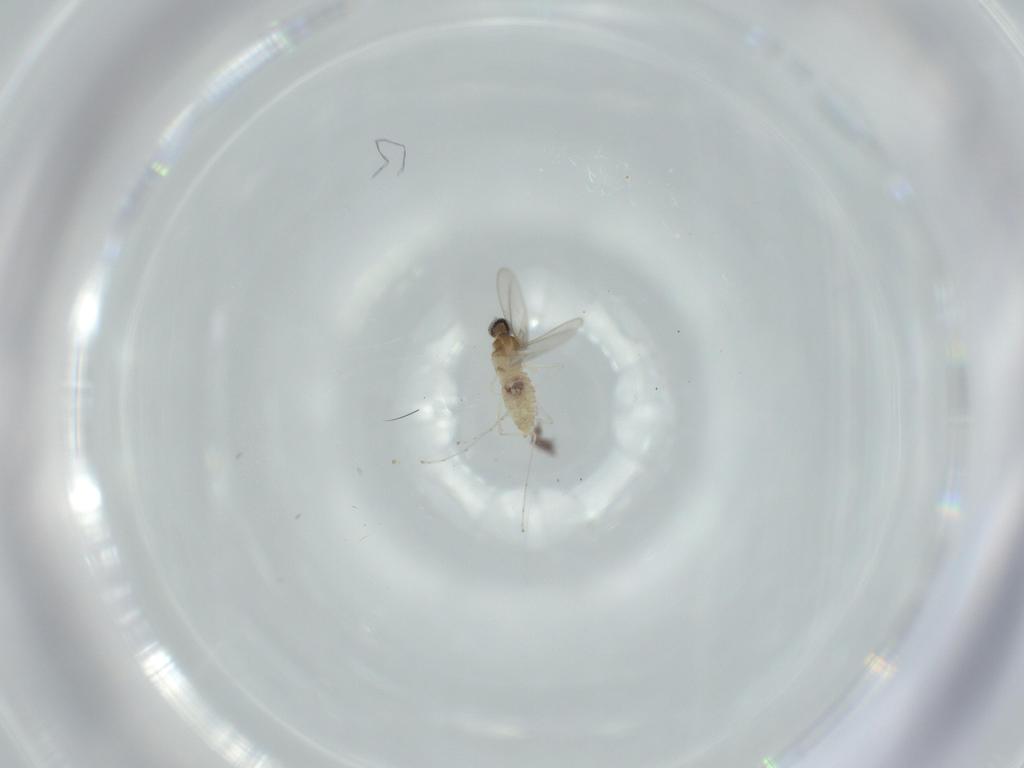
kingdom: Animalia
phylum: Arthropoda
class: Insecta
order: Diptera
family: Cecidomyiidae
